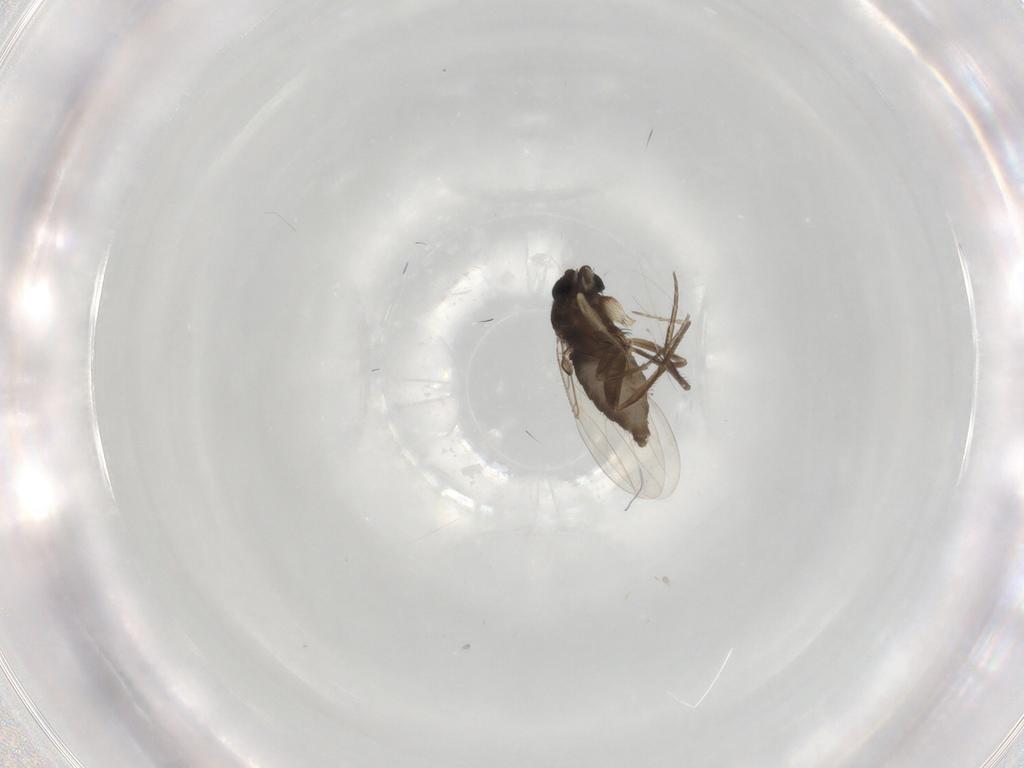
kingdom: Animalia
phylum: Arthropoda
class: Insecta
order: Diptera
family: Phoridae
